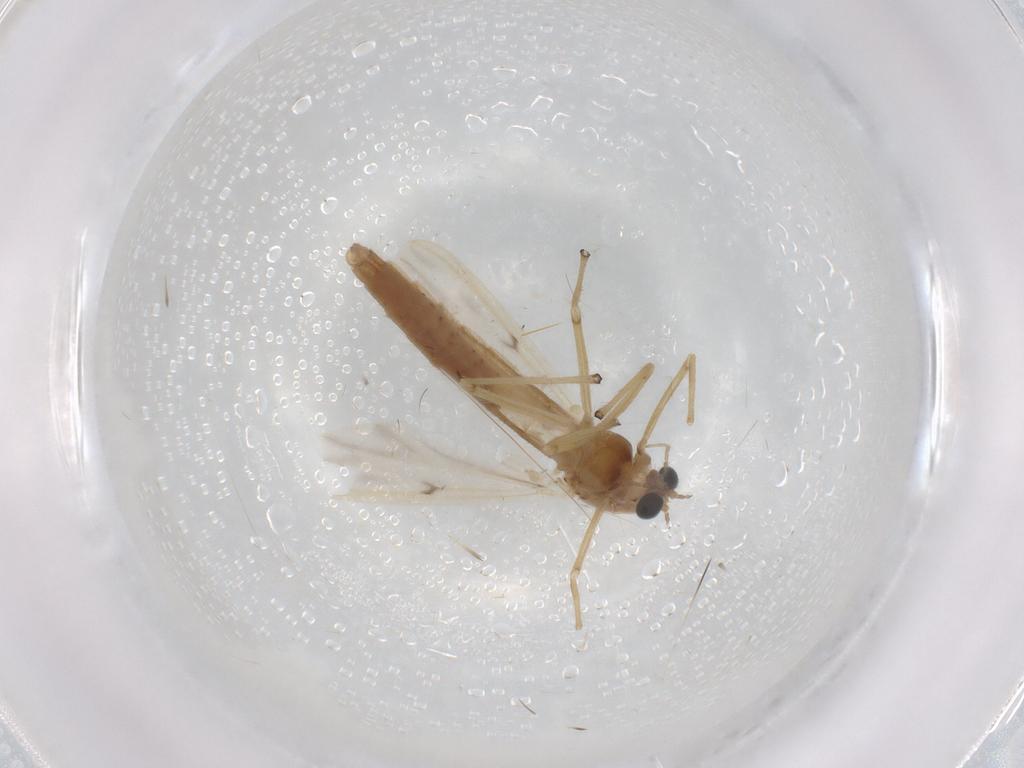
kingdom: Animalia
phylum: Arthropoda
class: Insecta
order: Diptera
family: Chironomidae
